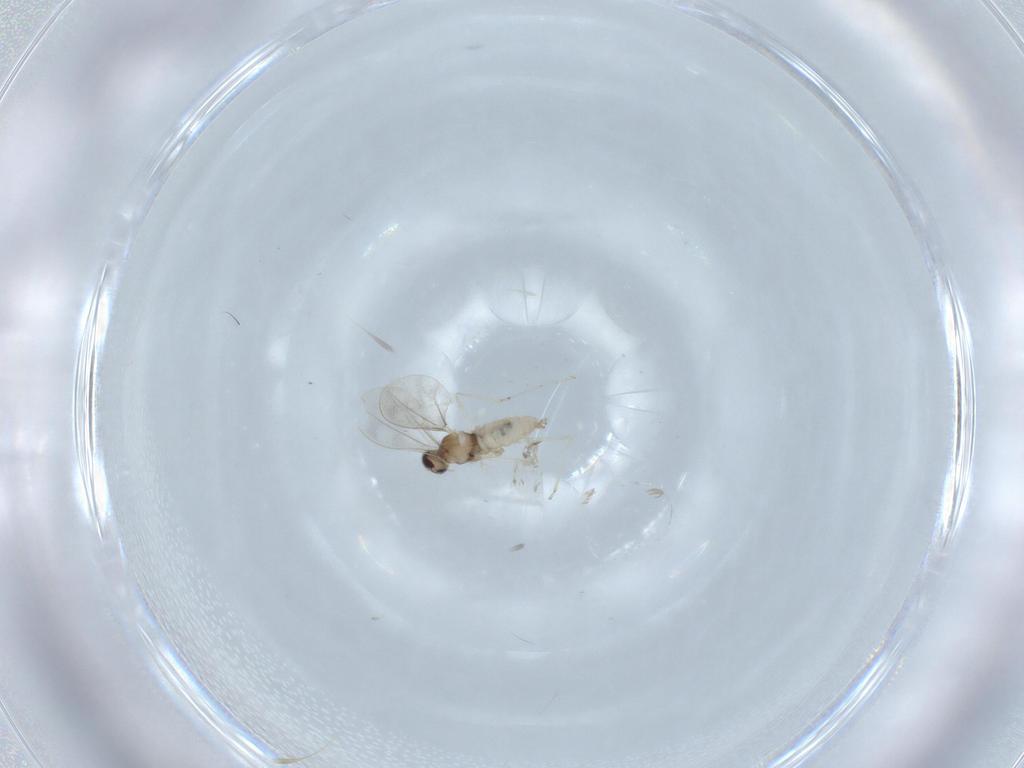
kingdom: Animalia
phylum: Arthropoda
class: Insecta
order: Diptera
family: Cecidomyiidae
